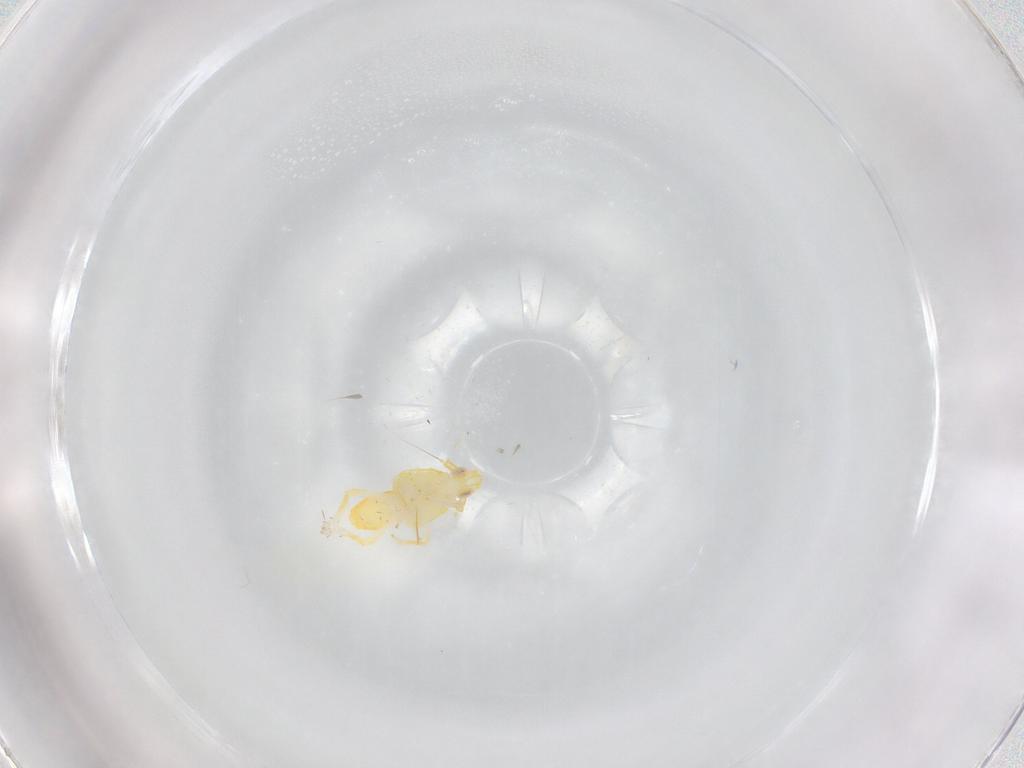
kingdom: Animalia
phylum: Arthropoda
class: Insecta
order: Hemiptera
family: Delphacidae
